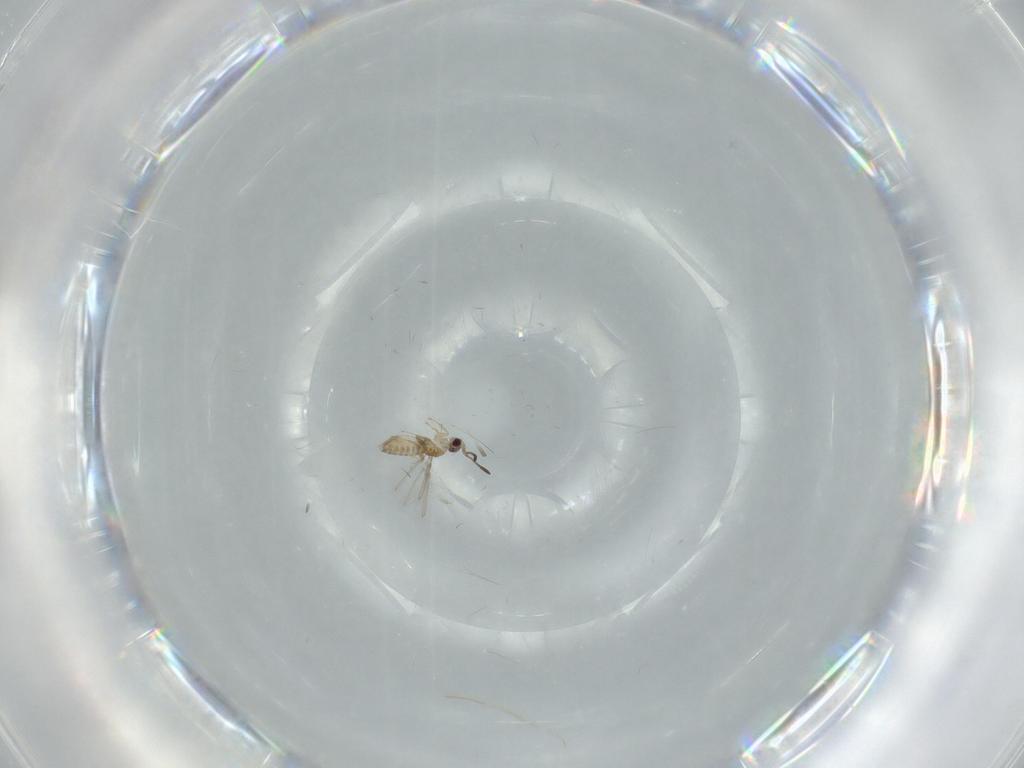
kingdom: Animalia
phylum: Arthropoda
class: Insecta
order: Hymenoptera
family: Mymaridae
